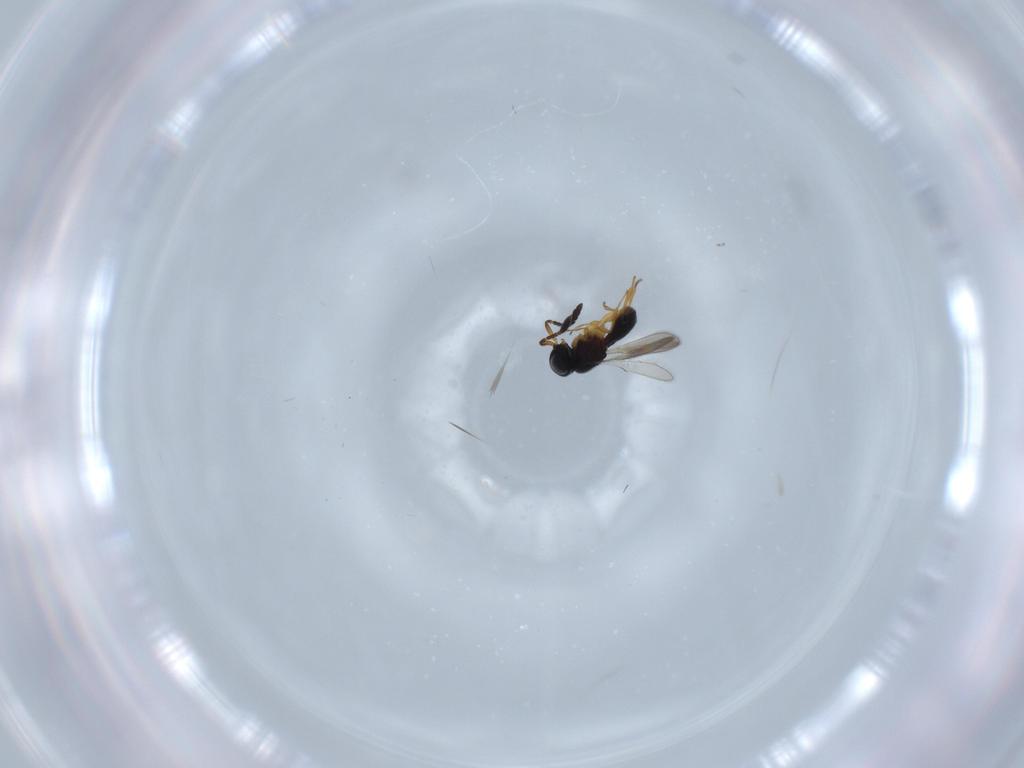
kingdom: Animalia
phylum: Arthropoda
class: Insecta
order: Hymenoptera
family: Scelionidae
